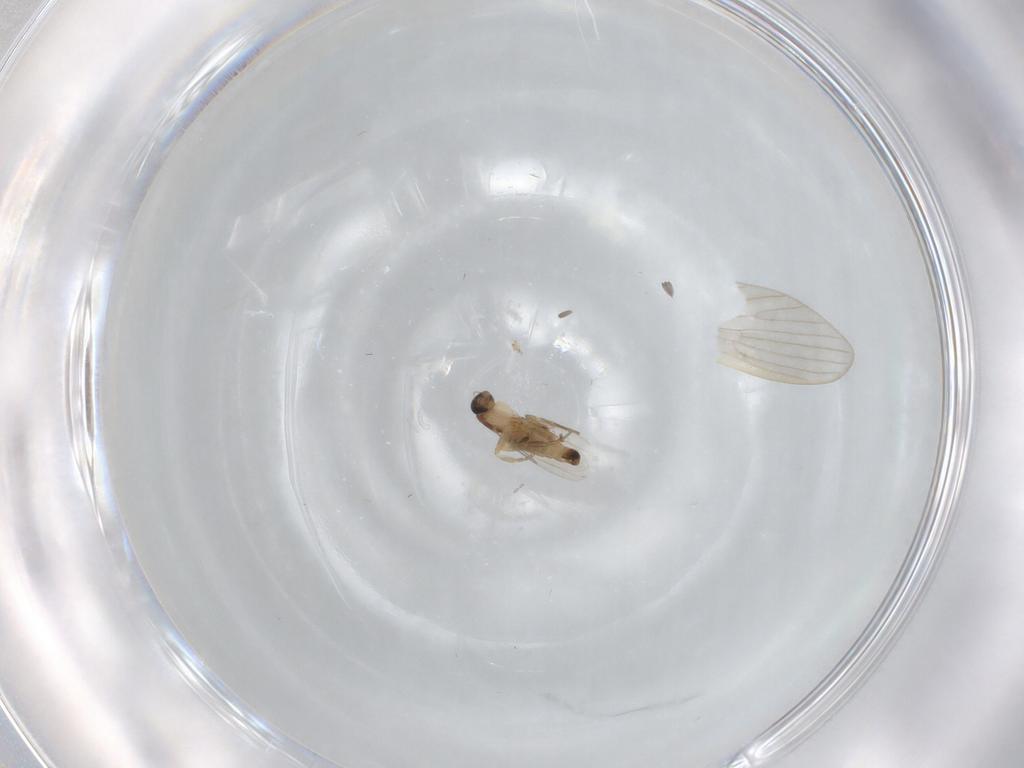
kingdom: Animalia
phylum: Arthropoda
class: Insecta
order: Diptera
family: Limoniidae
